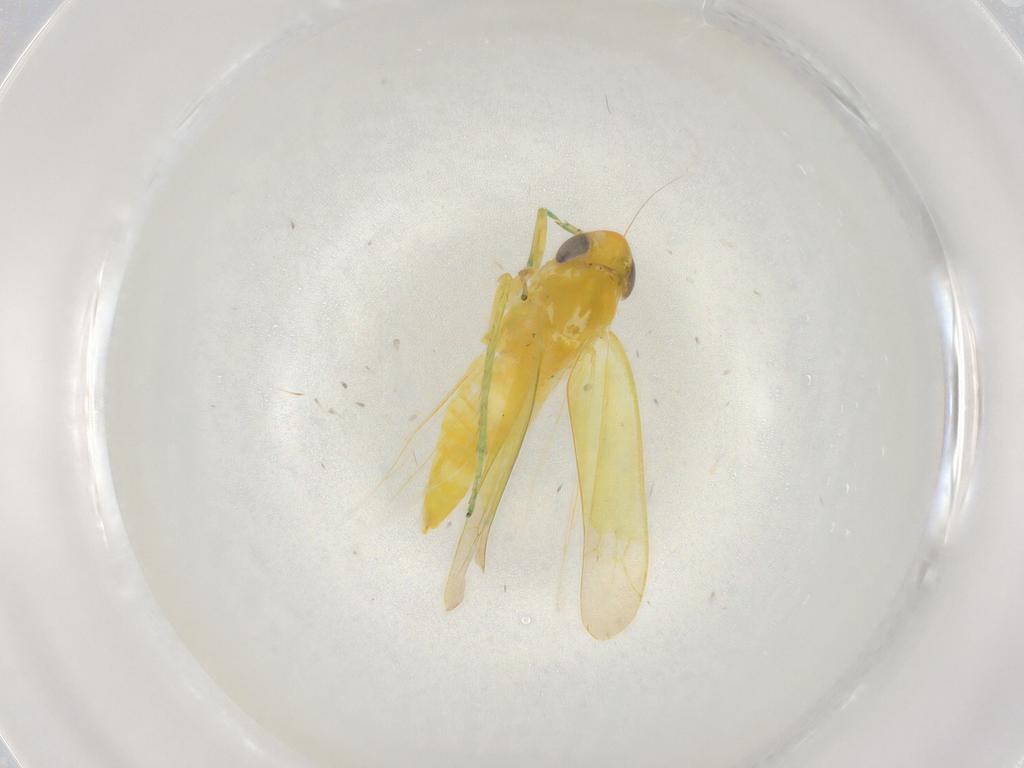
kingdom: Animalia
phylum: Arthropoda
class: Insecta
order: Hemiptera
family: Cicadellidae
